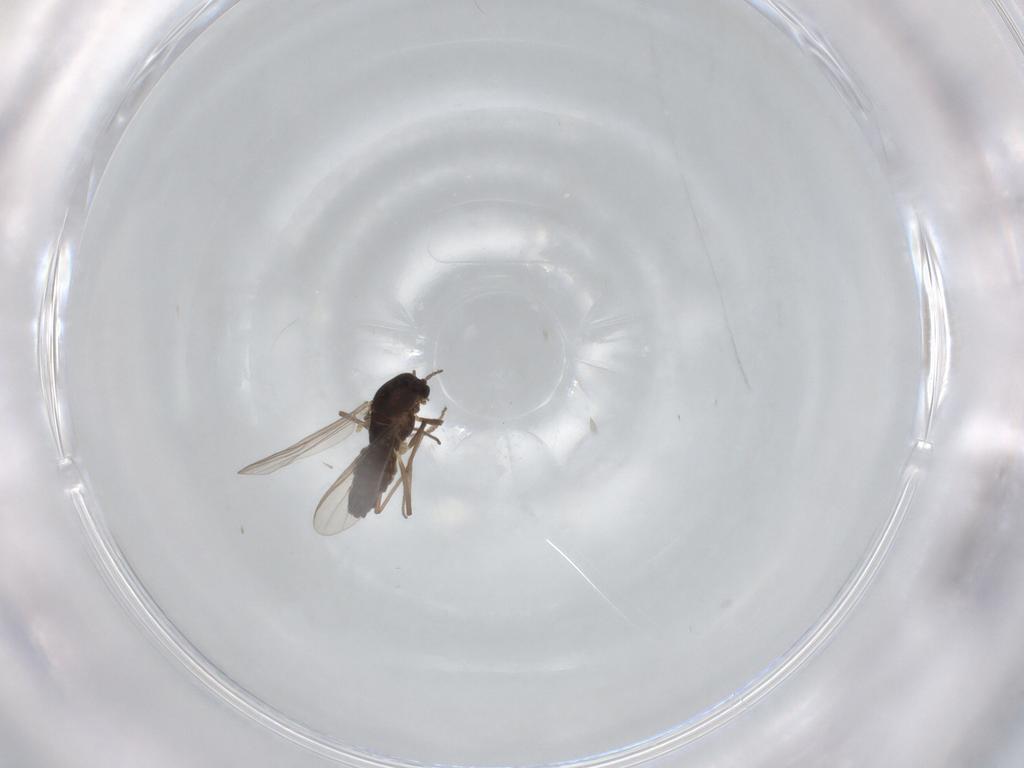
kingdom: Animalia
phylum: Arthropoda
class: Insecta
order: Diptera
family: Chironomidae
